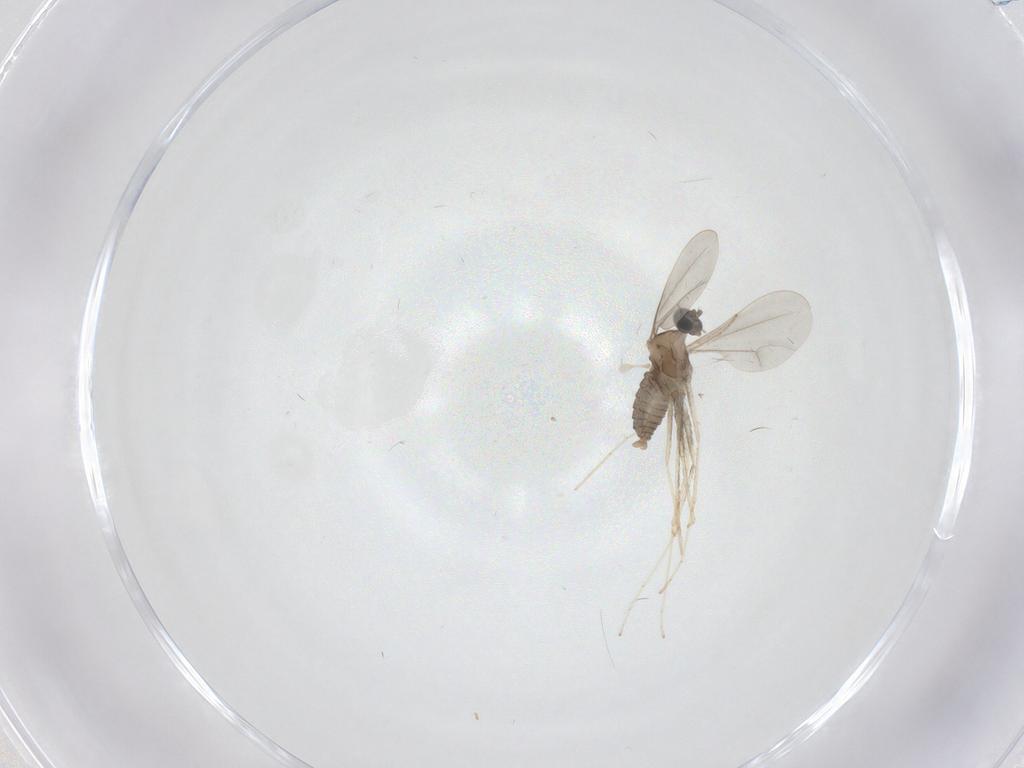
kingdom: Animalia
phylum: Arthropoda
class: Insecta
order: Diptera
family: Cecidomyiidae
